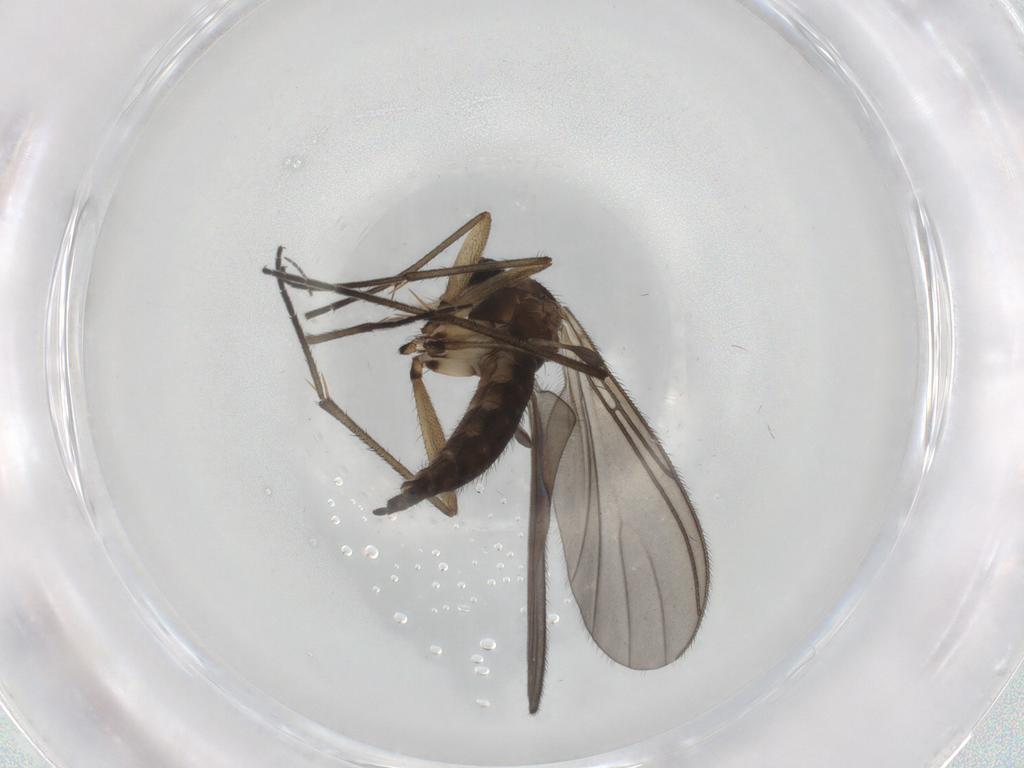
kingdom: Animalia
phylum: Arthropoda
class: Insecta
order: Diptera
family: Sciaridae
